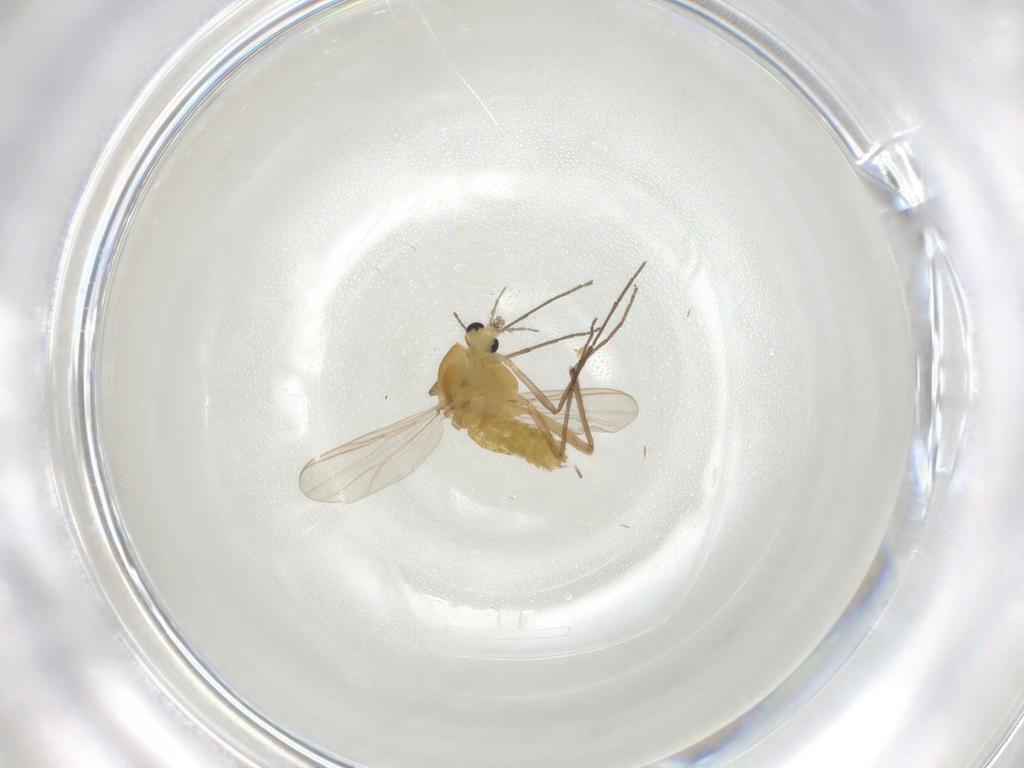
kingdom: Animalia
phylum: Arthropoda
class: Insecta
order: Diptera
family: Chironomidae
